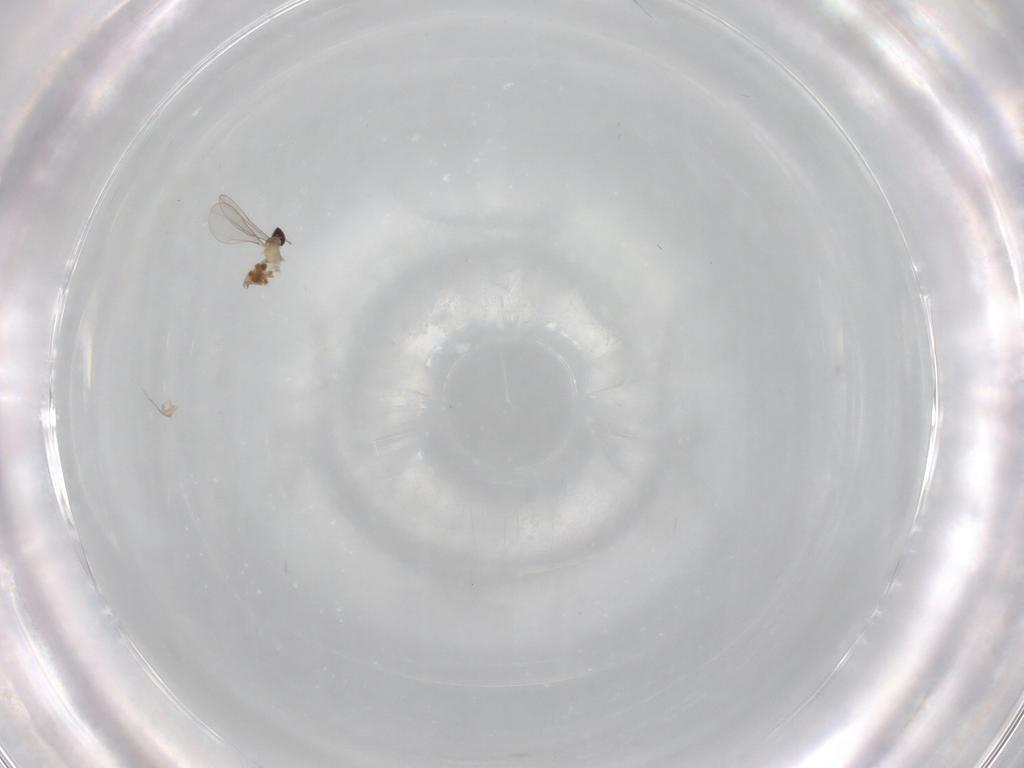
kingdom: Animalia
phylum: Arthropoda
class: Insecta
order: Diptera
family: Cecidomyiidae
